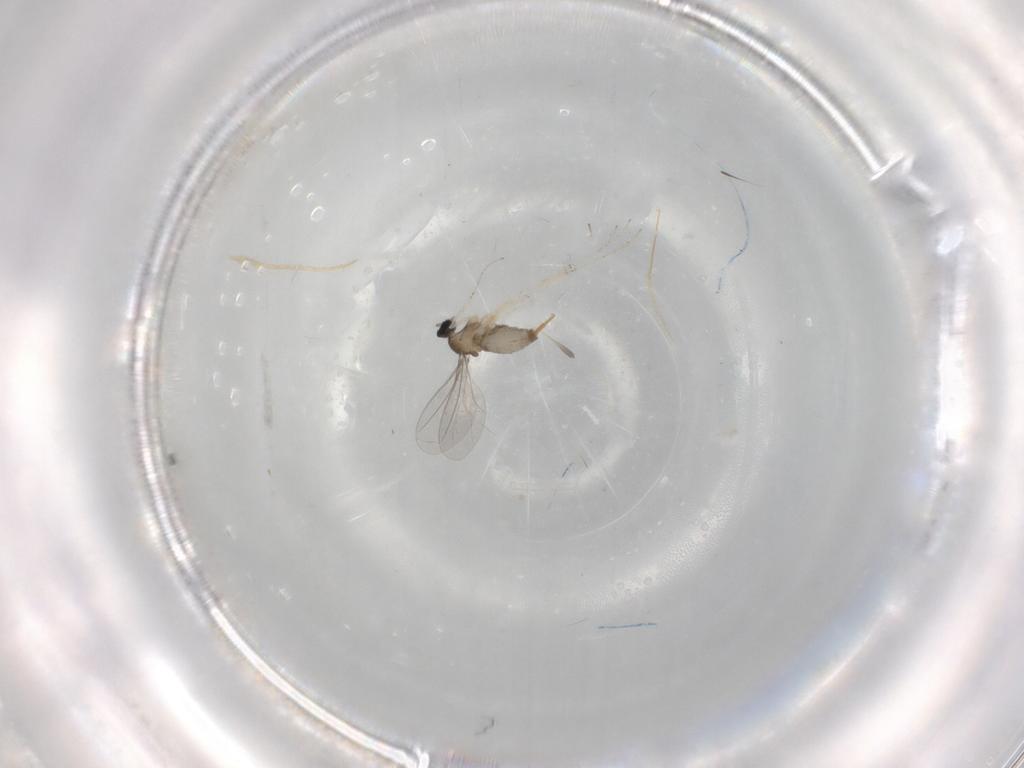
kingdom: Animalia
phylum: Arthropoda
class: Insecta
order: Diptera
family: Cecidomyiidae
